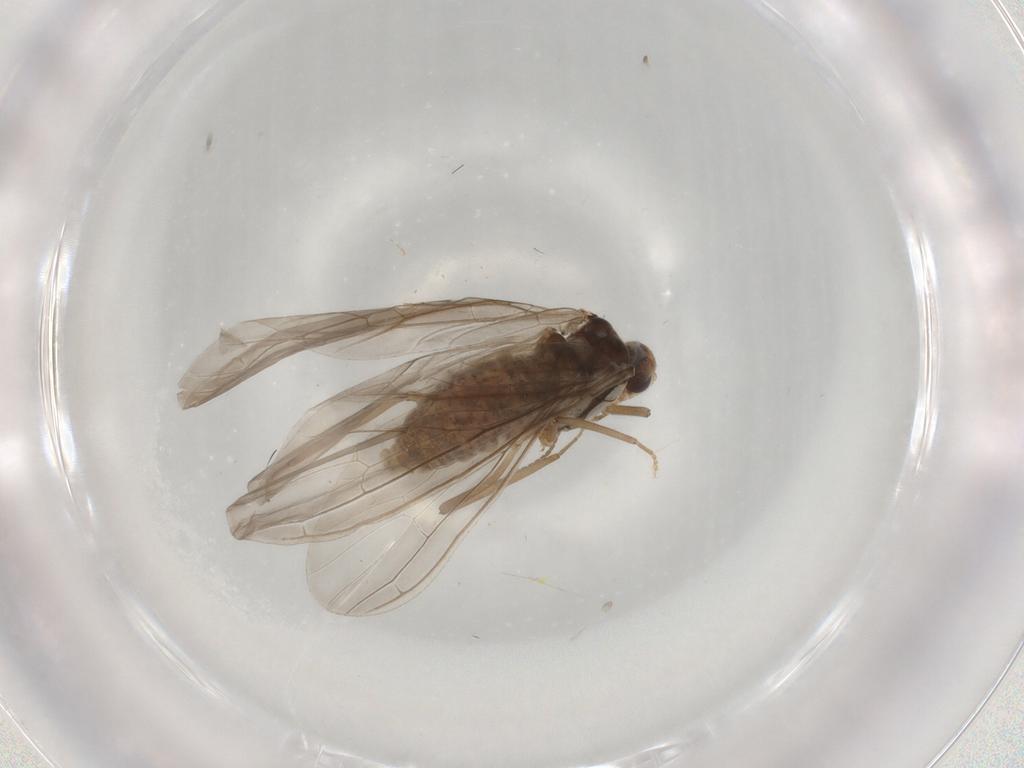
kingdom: Animalia
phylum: Arthropoda
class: Insecta
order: Neuroptera
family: Coniopterygidae
